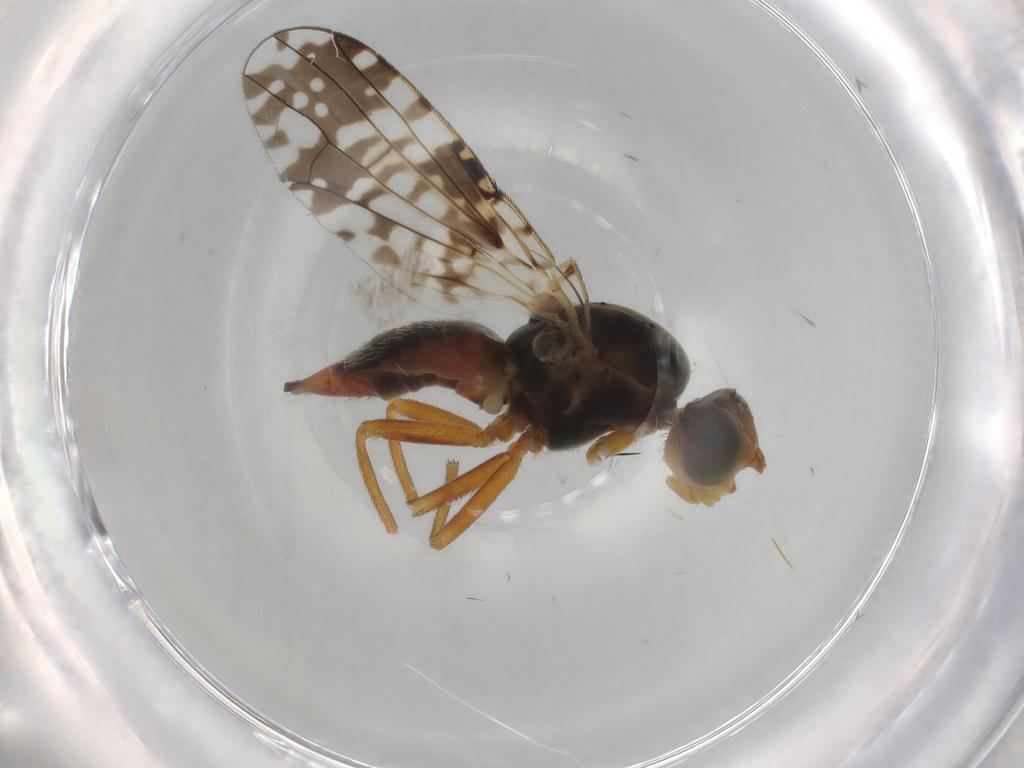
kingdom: Animalia
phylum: Arthropoda
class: Insecta
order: Diptera
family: Tephritidae
